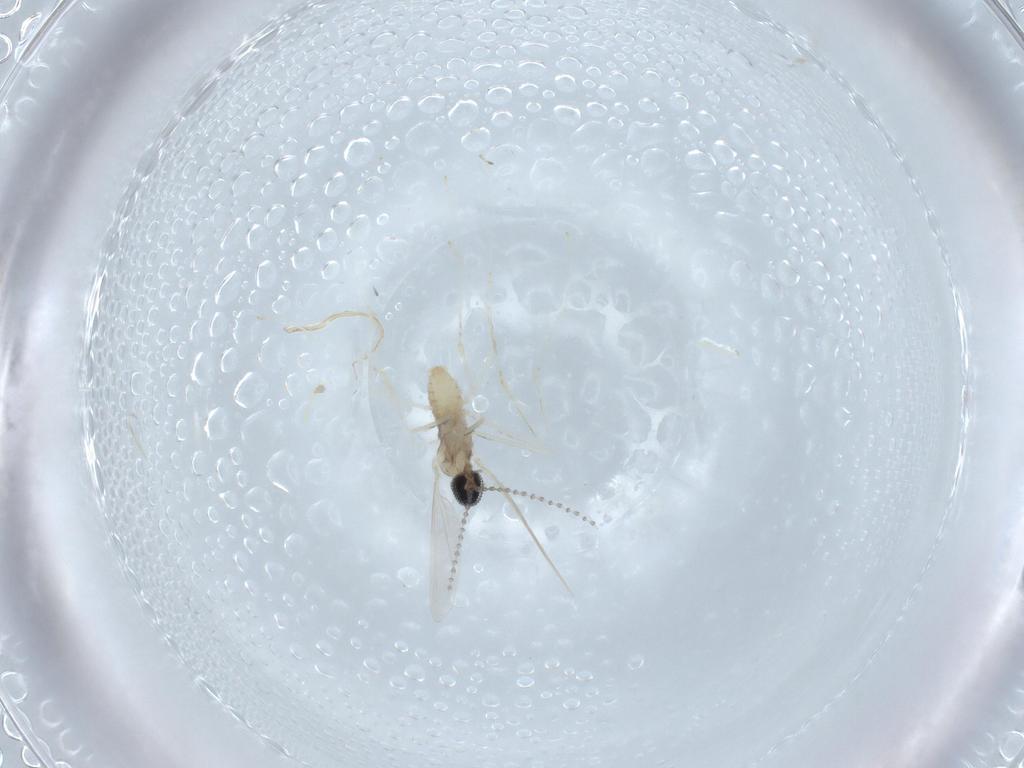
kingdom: Animalia
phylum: Arthropoda
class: Insecta
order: Diptera
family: Cecidomyiidae
